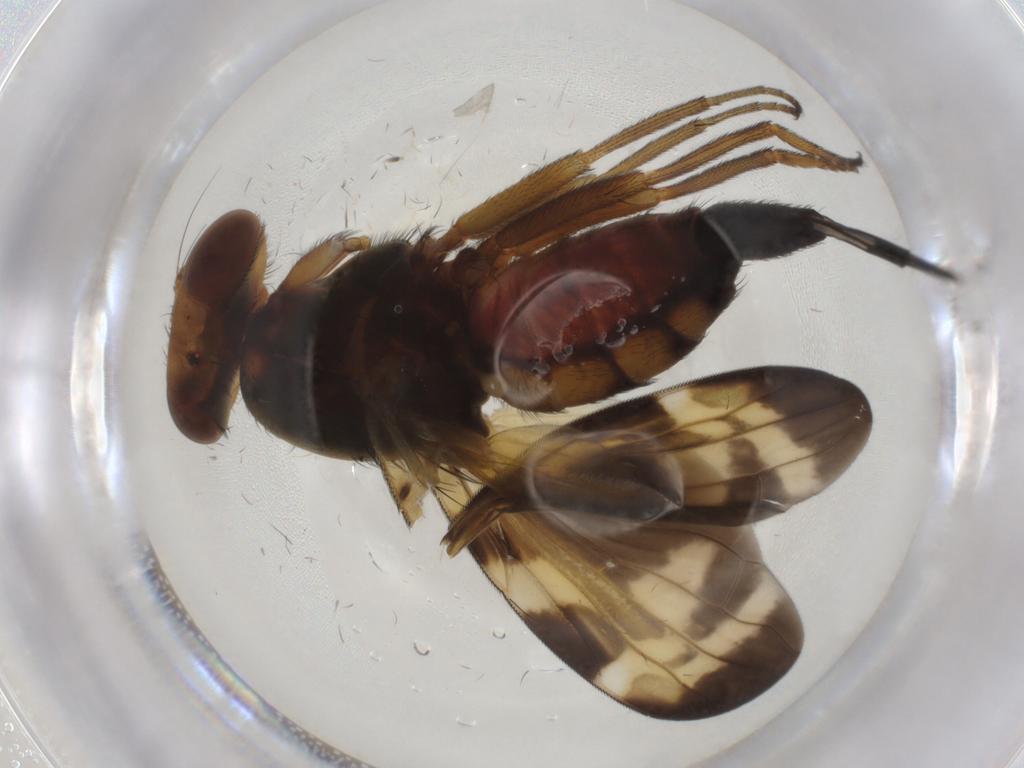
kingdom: Animalia
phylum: Arthropoda
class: Insecta
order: Diptera
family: Ulidiidae
